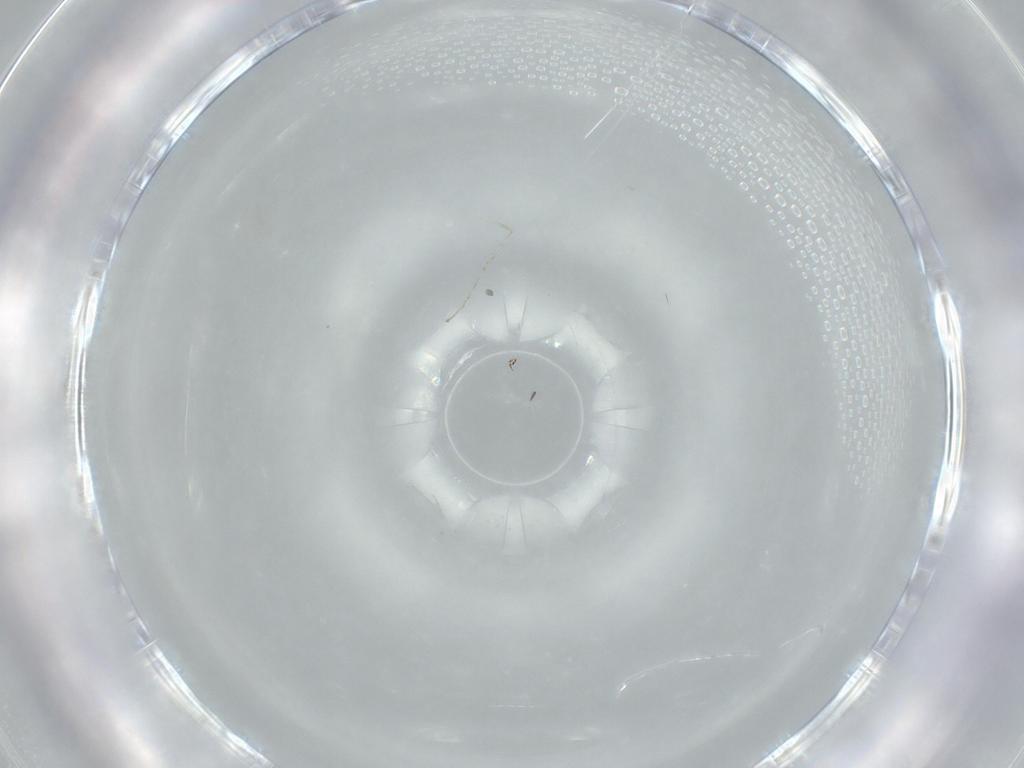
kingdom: Animalia
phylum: Arthropoda
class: Insecta
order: Diptera
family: Cecidomyiidae
